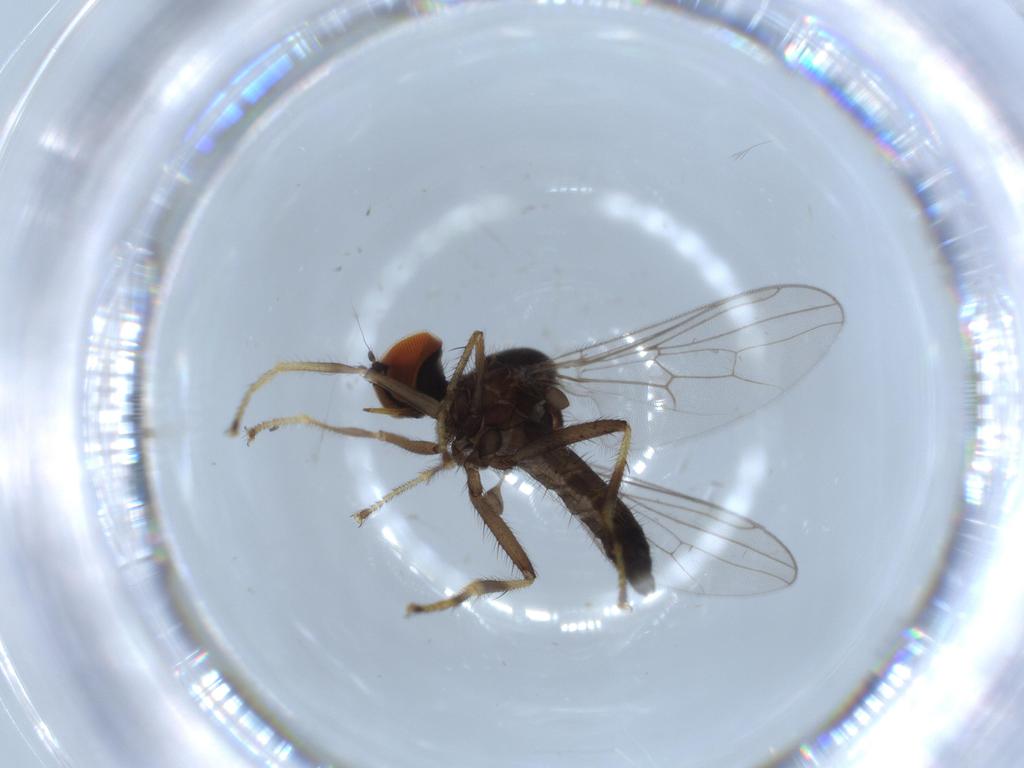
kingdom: Animalia
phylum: Arthropoda
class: Insecta
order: Diptera
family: Hybotidae
